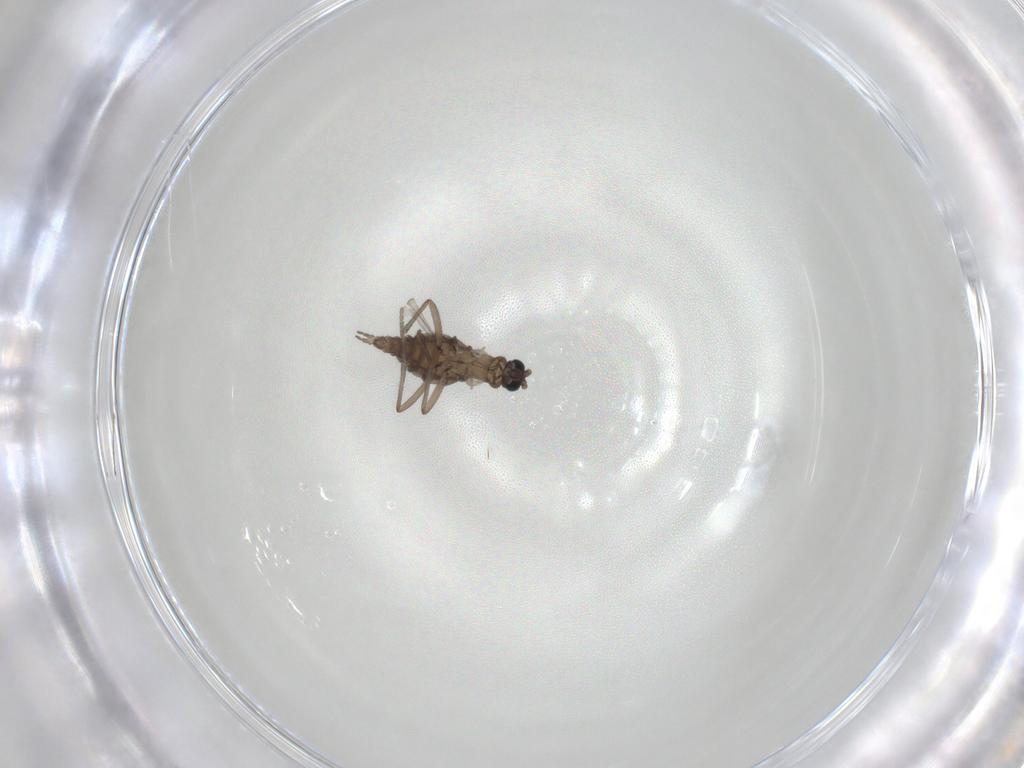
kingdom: Animalia
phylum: Arthropoda
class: Insecta
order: Diptera
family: Sciaridae
